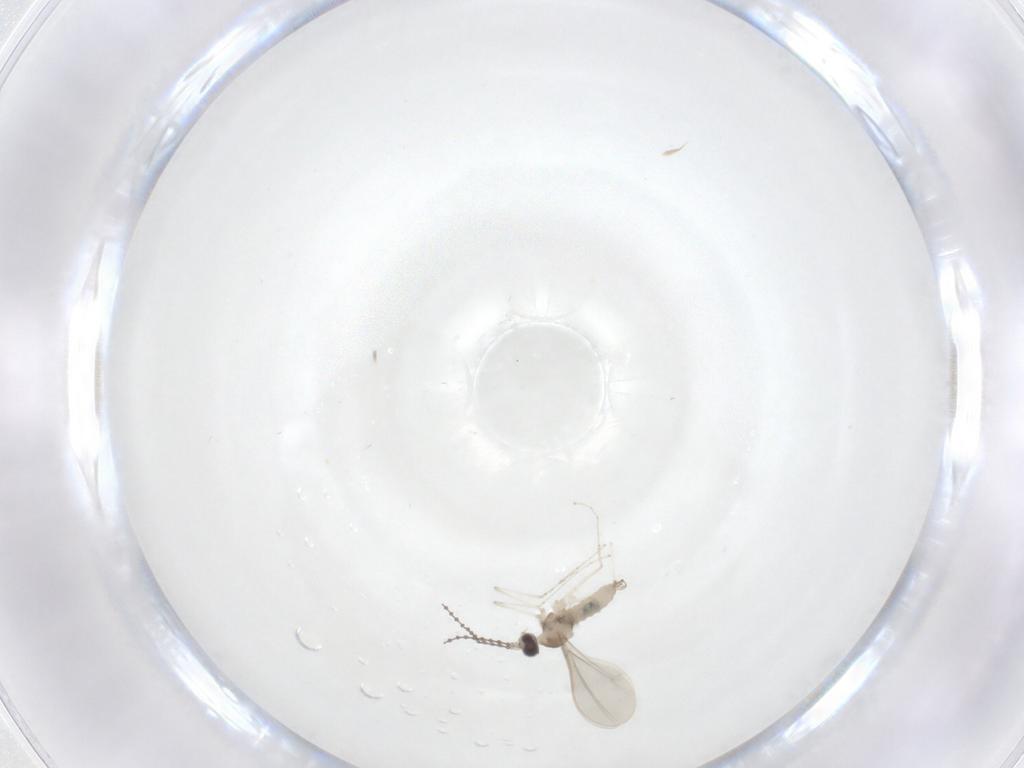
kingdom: Animalia
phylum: Arthropoda
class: Insecta
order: Diptera
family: Cecidomyiidae
